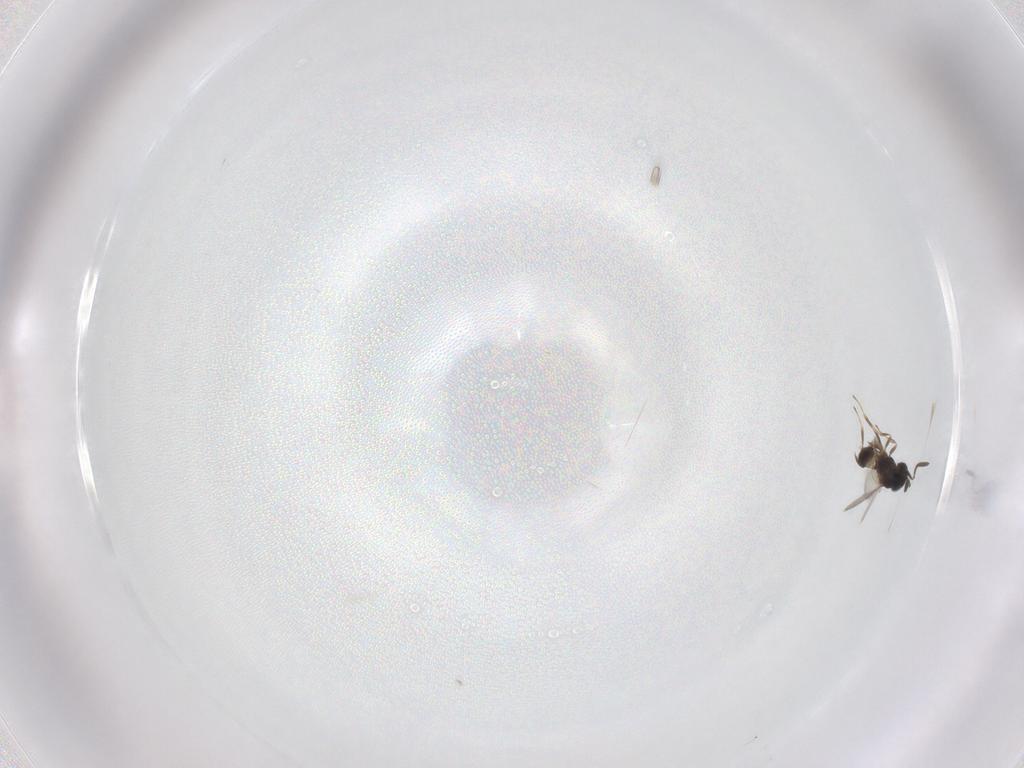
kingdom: Animalia
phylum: Arthropoda
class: Insecta
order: Hymenoptera
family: Scelionidae
